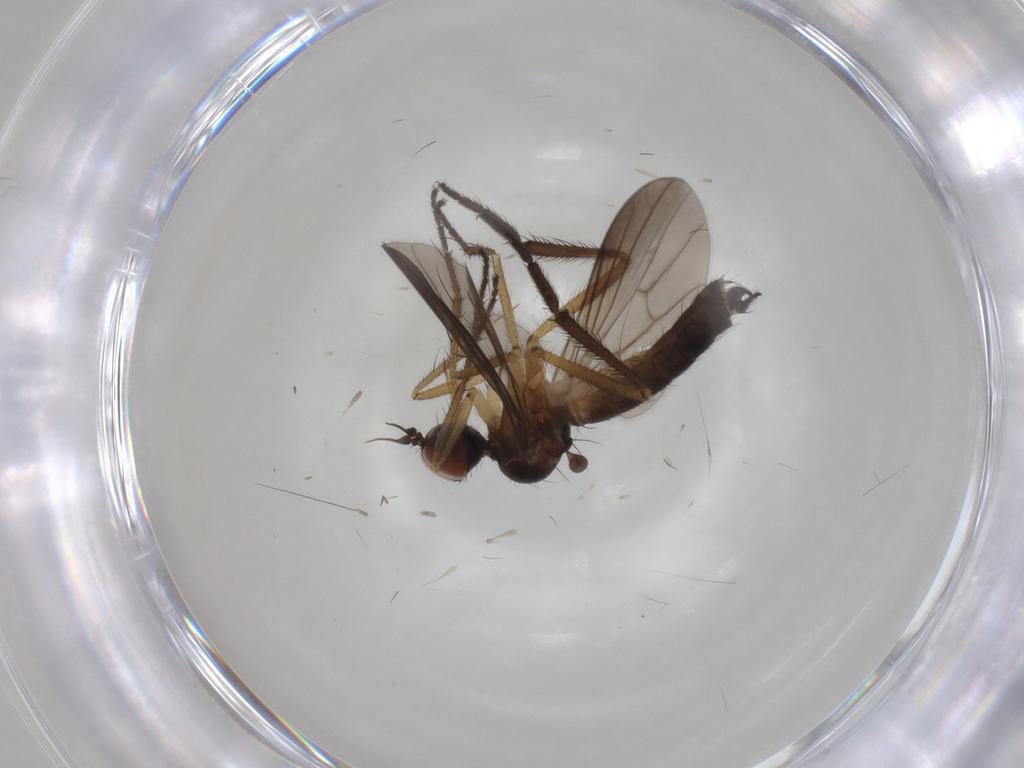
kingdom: Animalia
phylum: Arthropoda
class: Insecta
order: Diptera
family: Empididae
